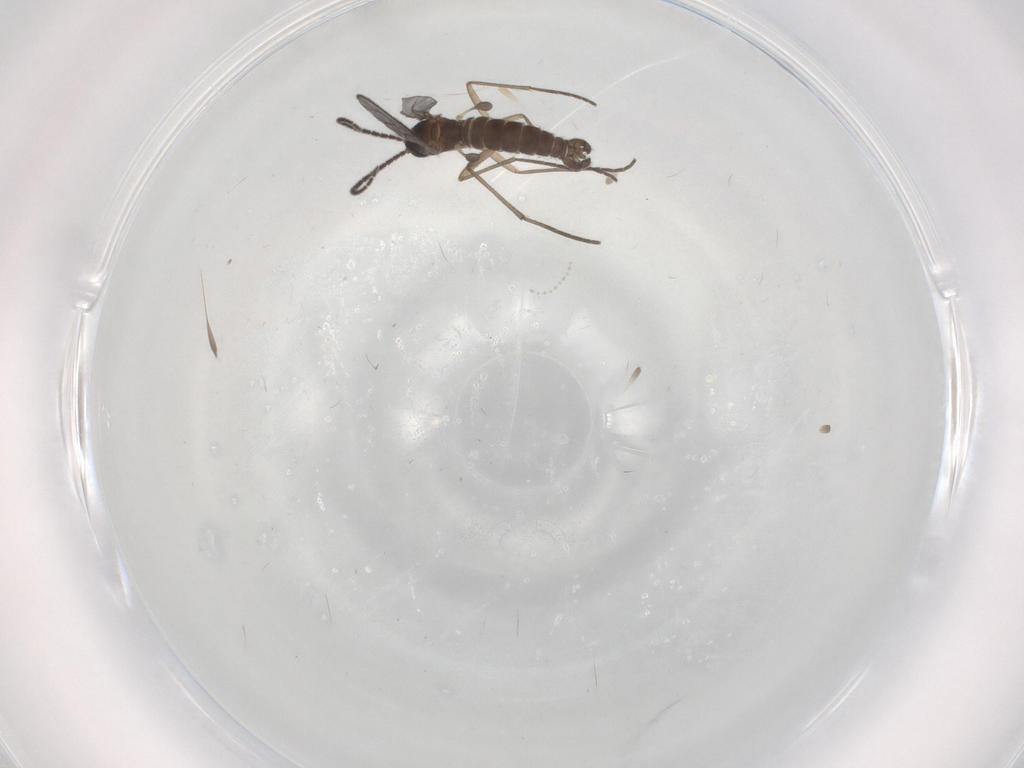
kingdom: Animalia
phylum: Arthropoda
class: Insecta
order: Diptera
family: Sciaridae
